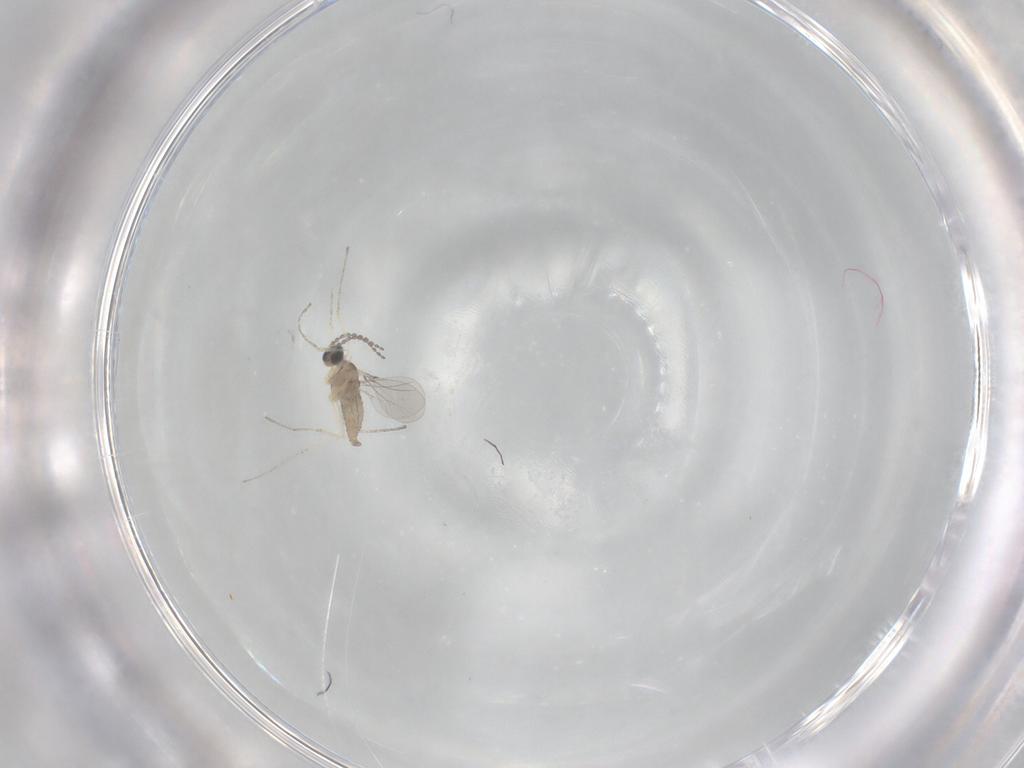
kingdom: Animalia
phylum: Arthropoda
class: Insecta
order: Diptera
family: Cecidomyiidae
